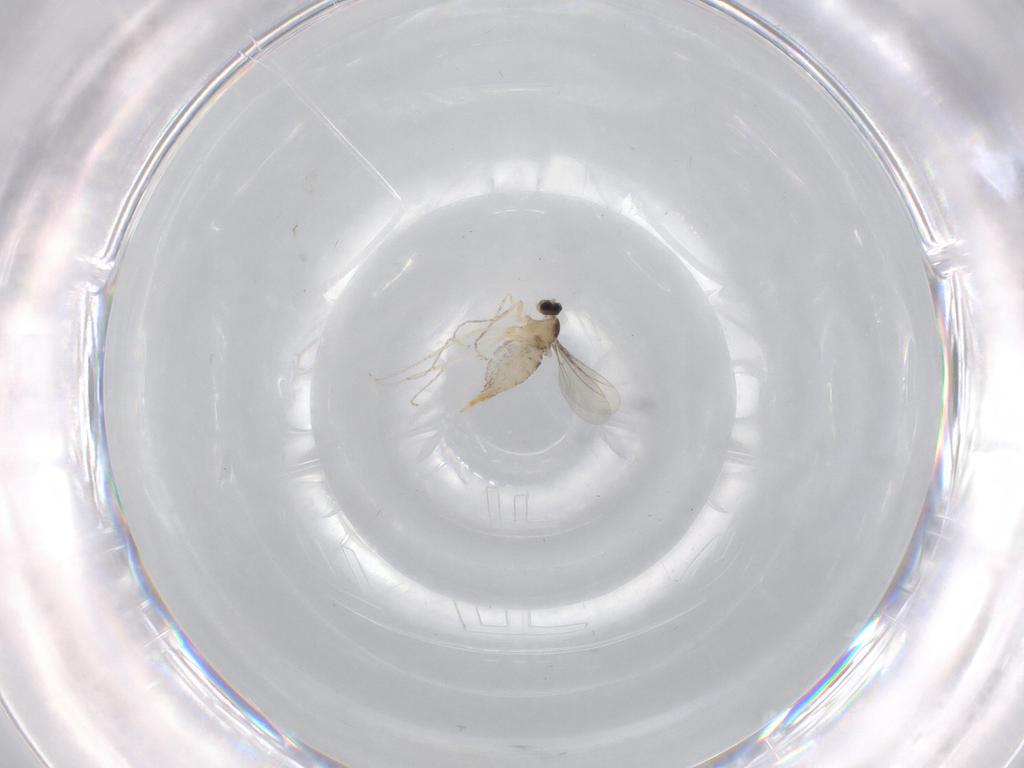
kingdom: Animalia
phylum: Arthropoda
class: Insecta
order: Diptera
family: Cecidomyiidae
